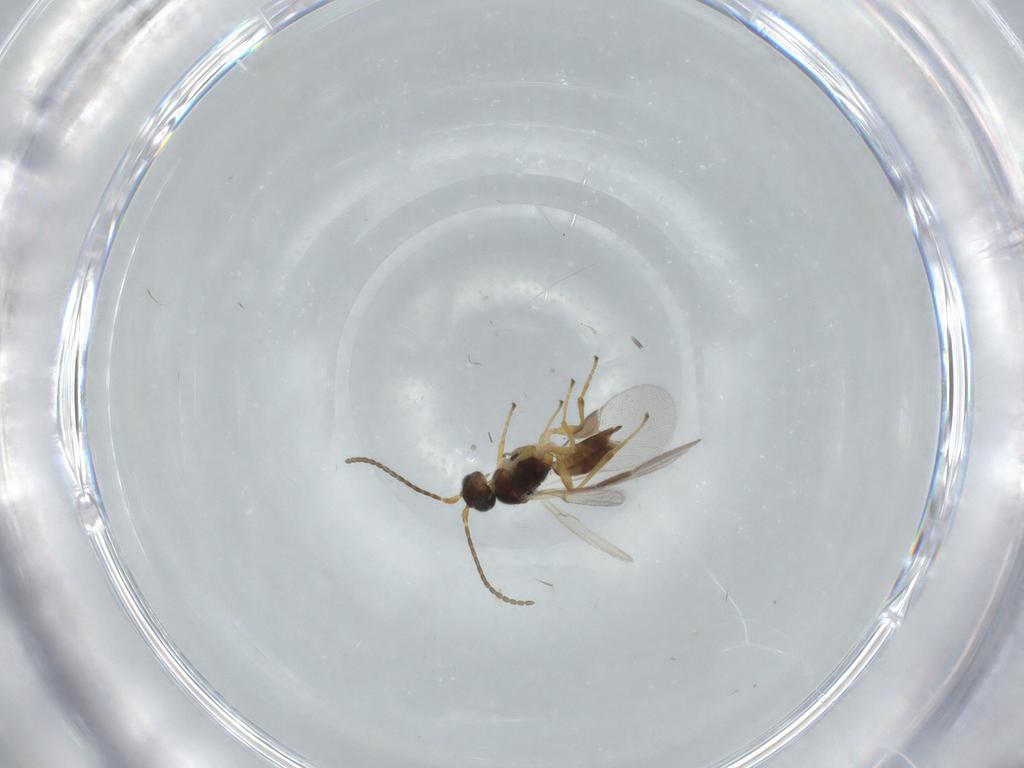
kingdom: Animalia
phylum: Arthropoda
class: Insecta
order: Hymenoptera
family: Braconidae
